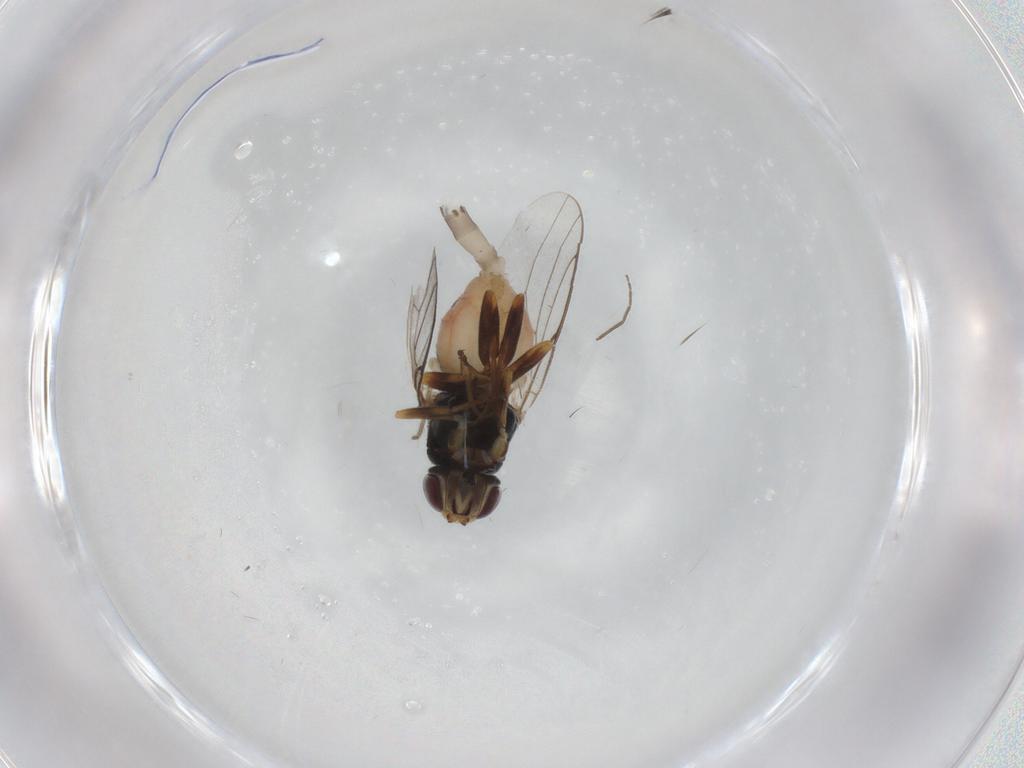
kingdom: Animalia
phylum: Arthropoda
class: Insecta
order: Diptera
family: Chloropidae
